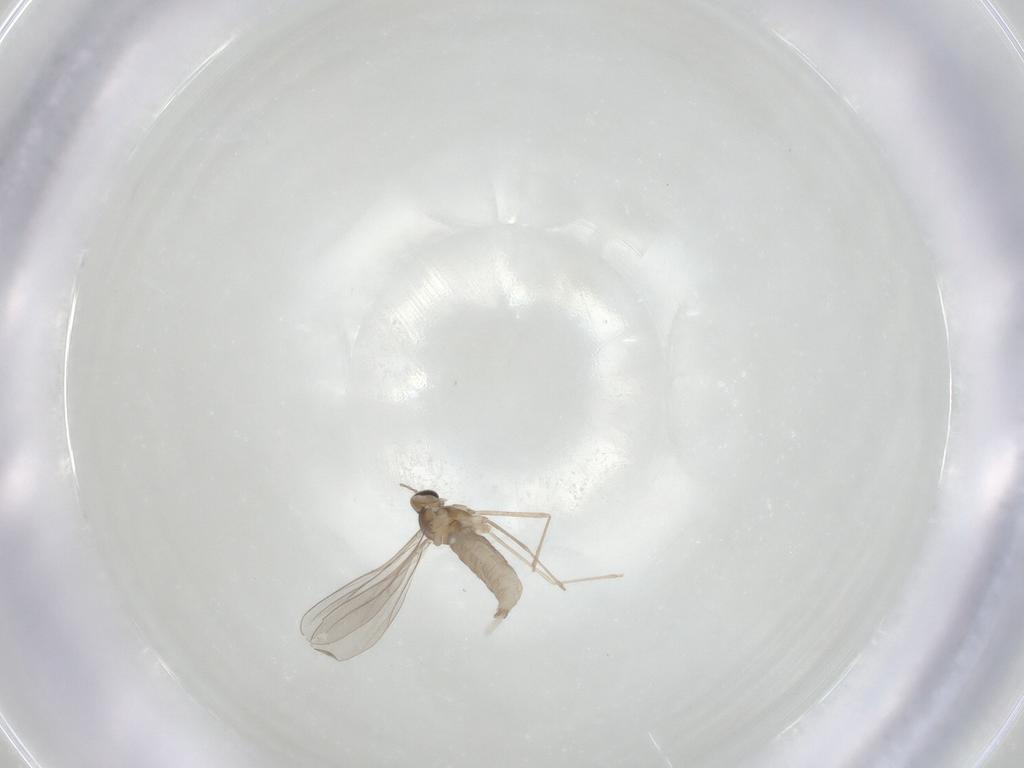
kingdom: Animalia
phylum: Arthropoda
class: Insecta
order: Diptera
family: Cecidomyiidae
